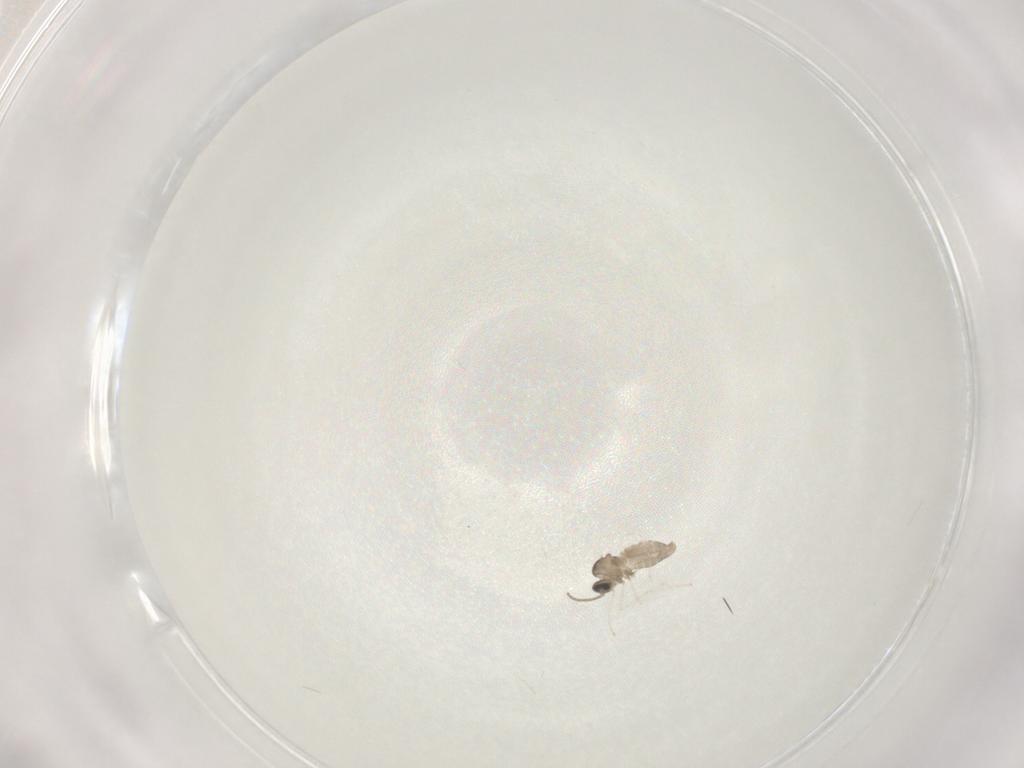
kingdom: Animalia
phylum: Arthropoda
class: Insecta
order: Diptera
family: Cecidomyiidae
